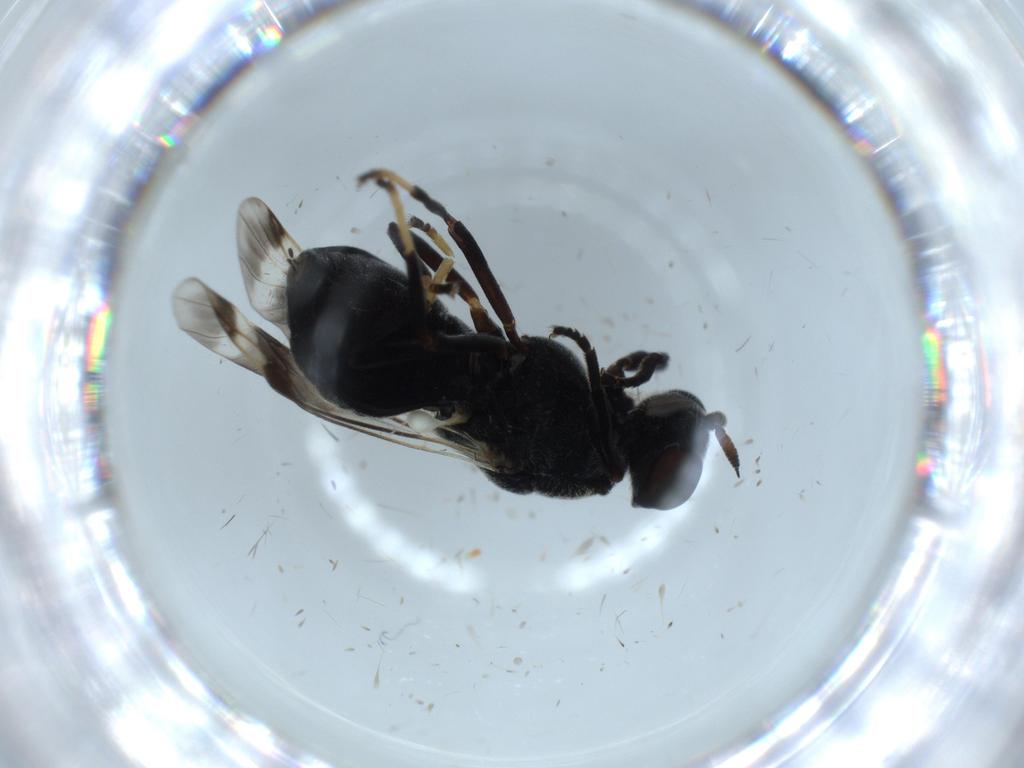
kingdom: Animalia
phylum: Arthropoda
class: Insecta
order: Diptera
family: Stratiomyidae
